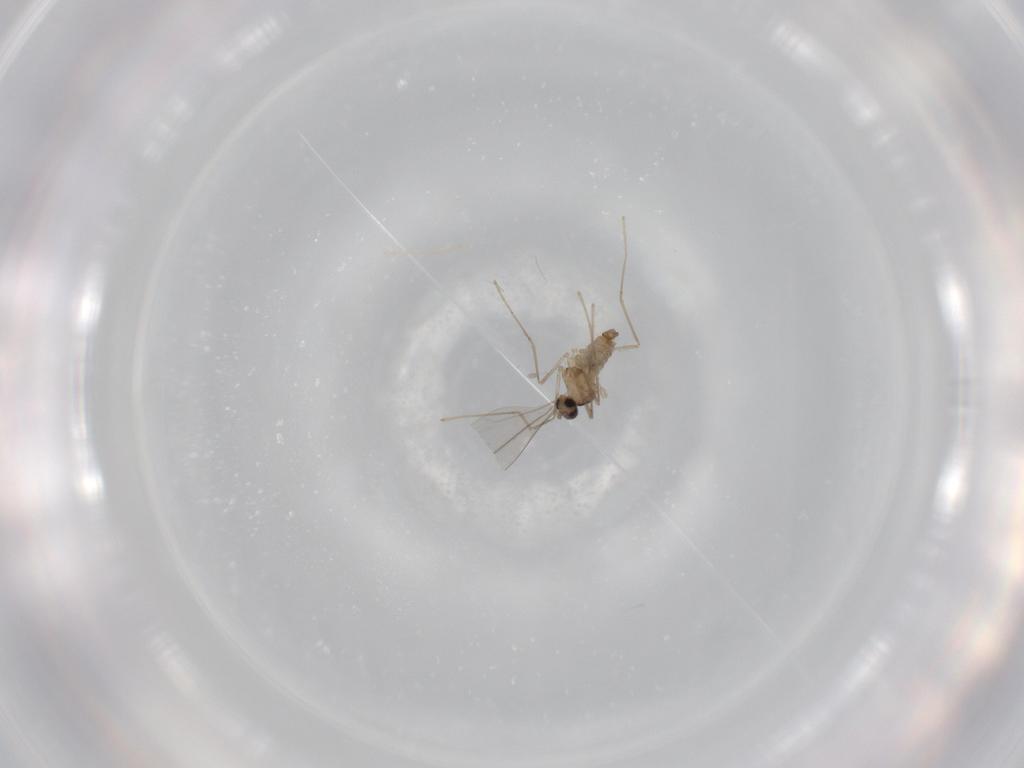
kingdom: Animalia
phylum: Arthropoda
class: Insecta
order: Diptera
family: Cecidomyiidae
